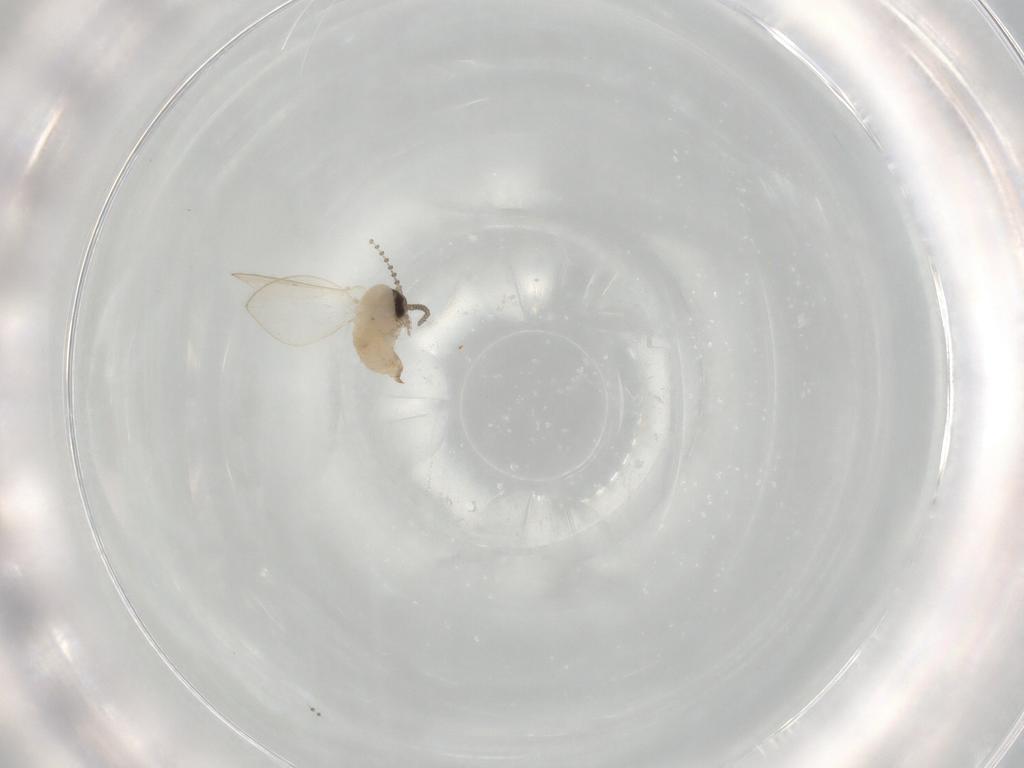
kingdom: Animalia
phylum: Arthropoda
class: Insecta
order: Diptera
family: Psychodidae
